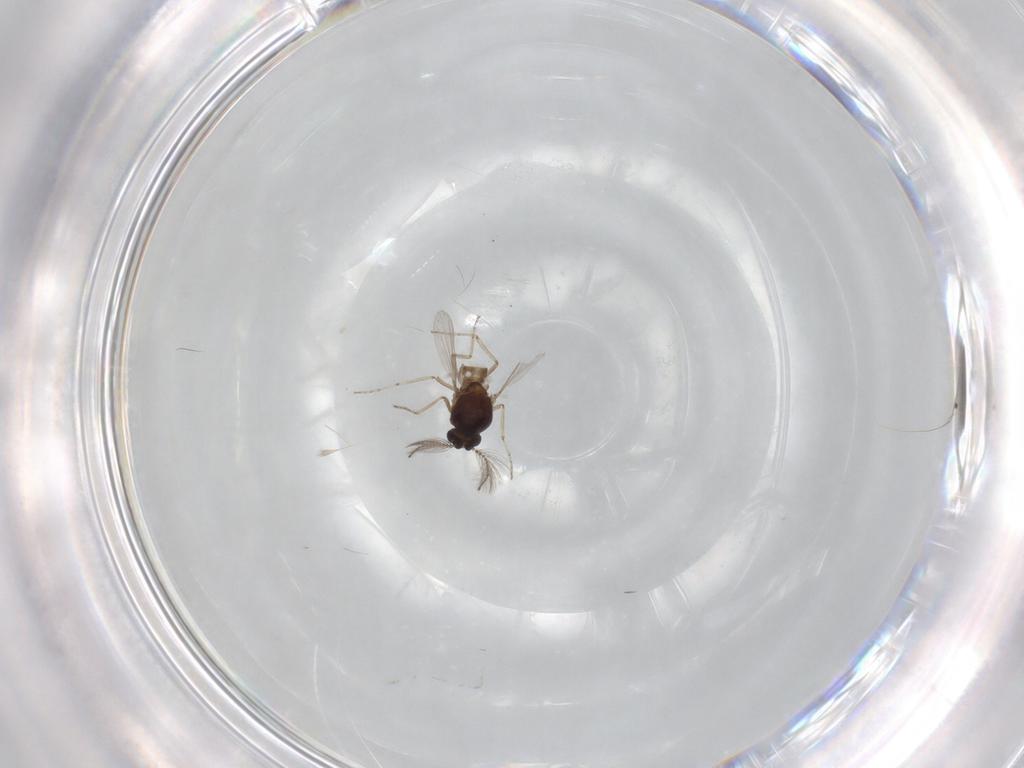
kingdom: Animalia
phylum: Arthropoda
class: Insecta
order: Diptera
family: Ceratopogonidae
